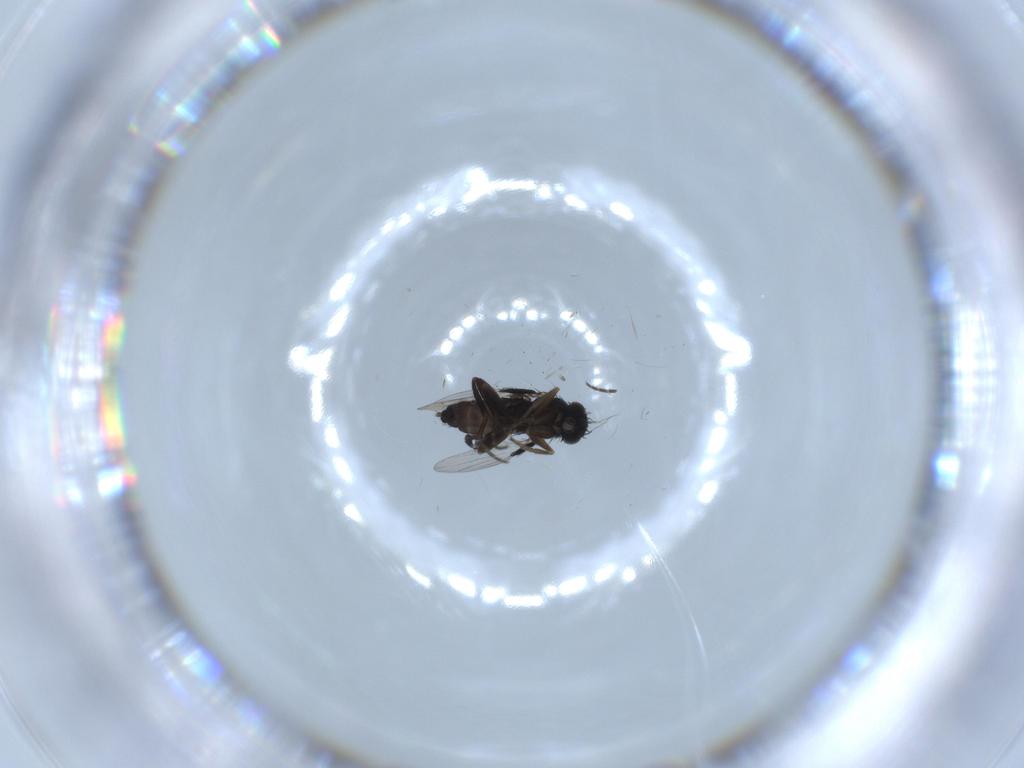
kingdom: Animalia
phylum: Arthropoda
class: Insecta
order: Diptera
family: Phoridae
